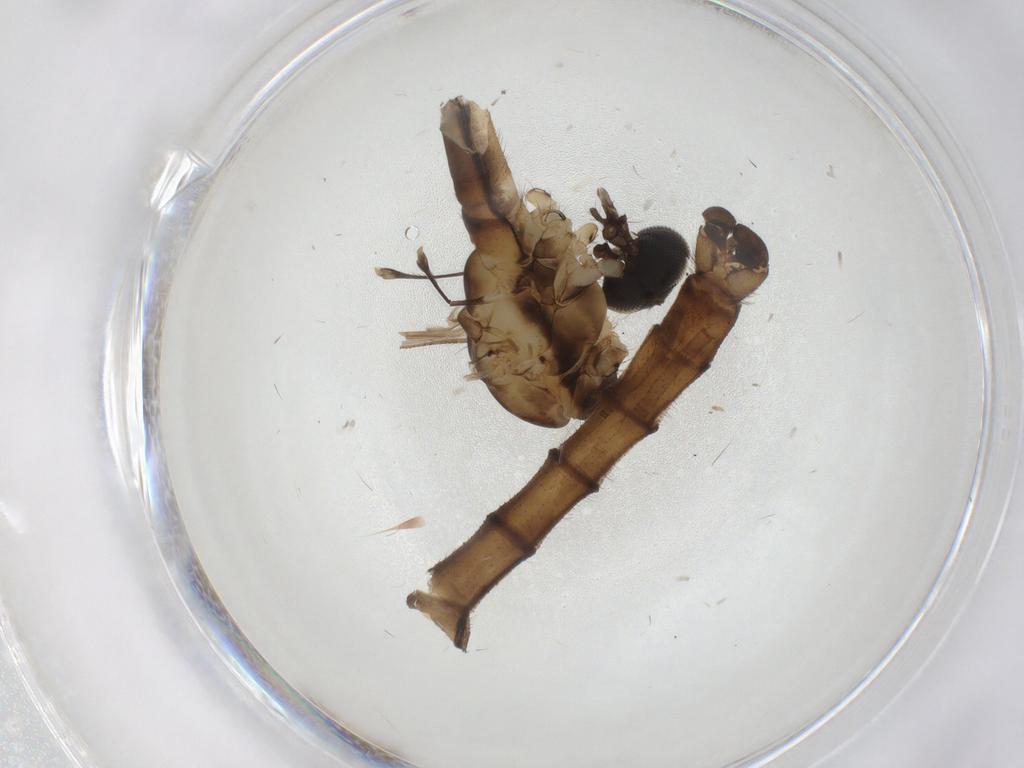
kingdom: Animalia
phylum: Arthropoda
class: Insecta
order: Diptera
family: Limoniidae
